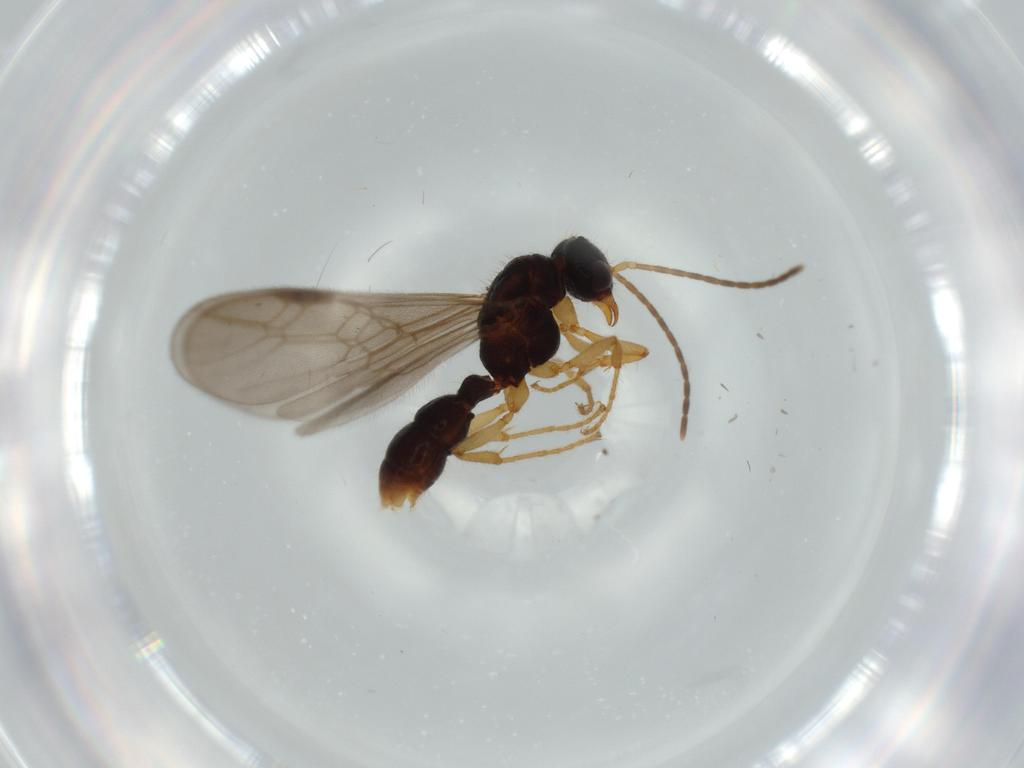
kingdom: Animalia
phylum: Arthropoda
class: Insecta
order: Hymenoptera
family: Formicidae
